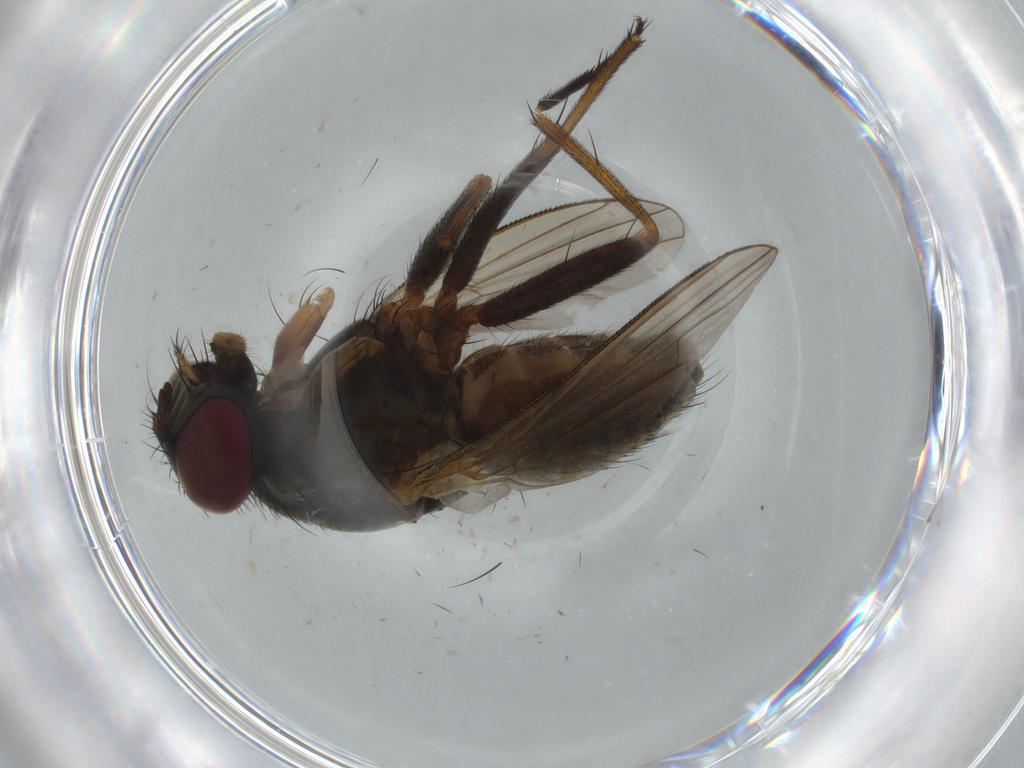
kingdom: Animalia
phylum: Arthropoda
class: Insecta
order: Diptera
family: Muscidae
